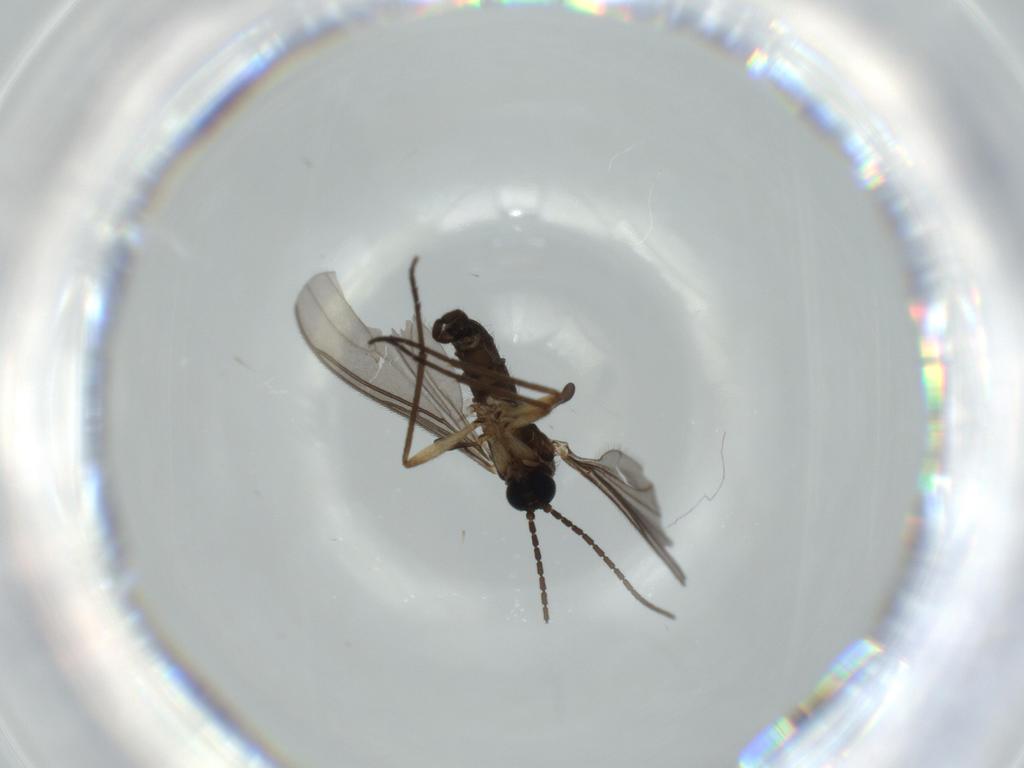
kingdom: Animalia
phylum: Arthropoda
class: Insecta
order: Diptera
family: Sciaridae
